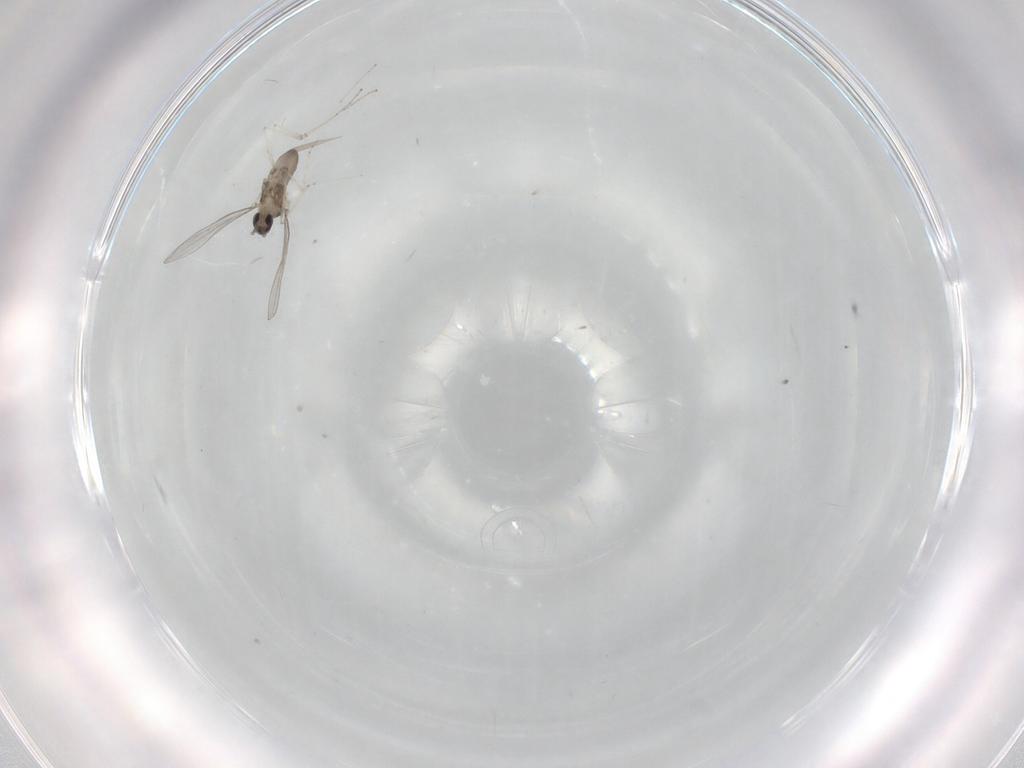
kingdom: Animalia
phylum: Arthropoda
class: Insecta
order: Diptera
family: Cecidomyiidae
